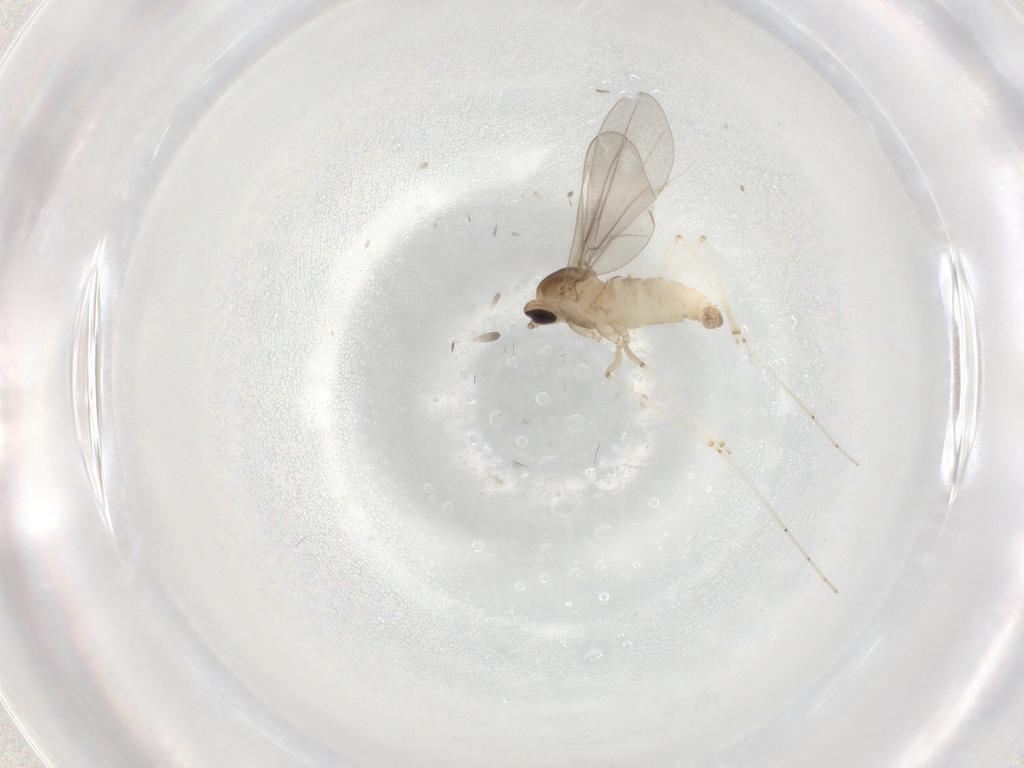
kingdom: Animalia
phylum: Arthropoda
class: Insecta
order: Diptera
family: Cecidomyiidae
